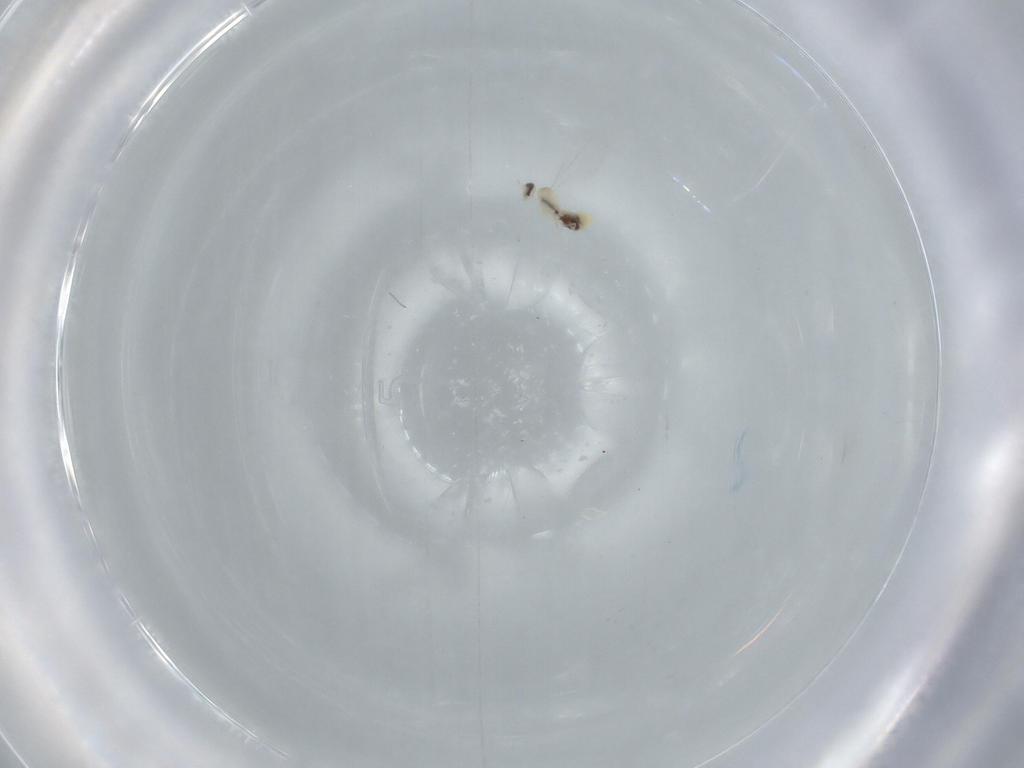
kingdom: Animalia
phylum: Arthropoda
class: Insecta
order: Diptera
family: Cecidomyiidae
